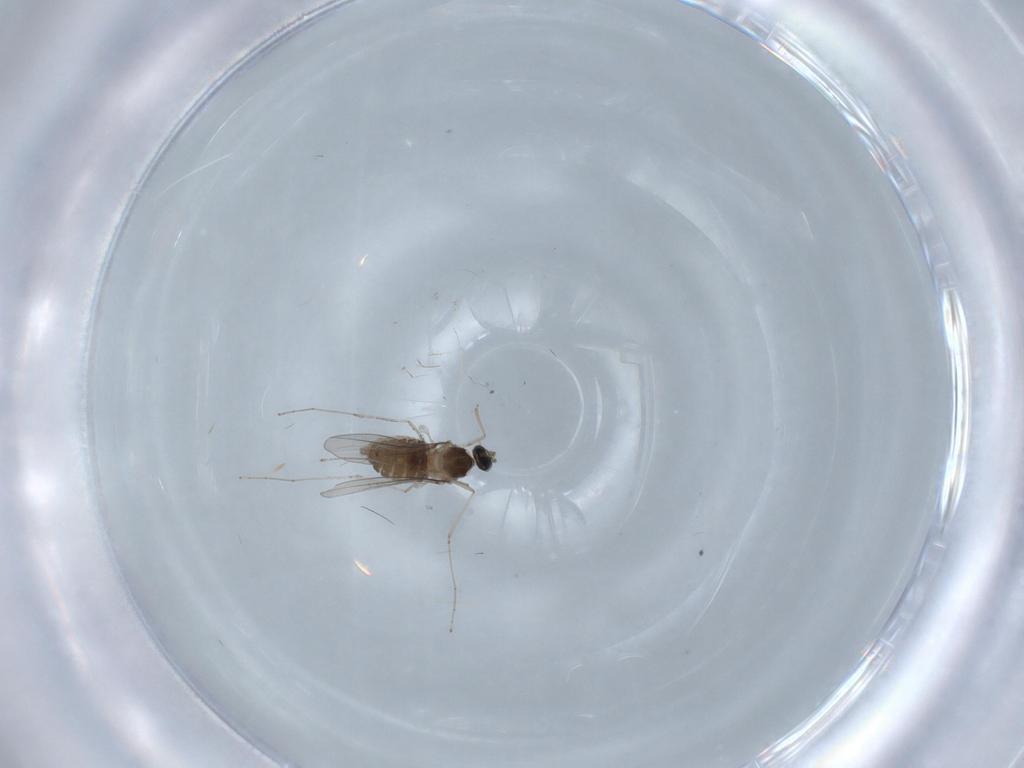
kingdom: Animalia
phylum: Arthropoda
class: Insecta
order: Diptera
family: Cecidomyiidae
